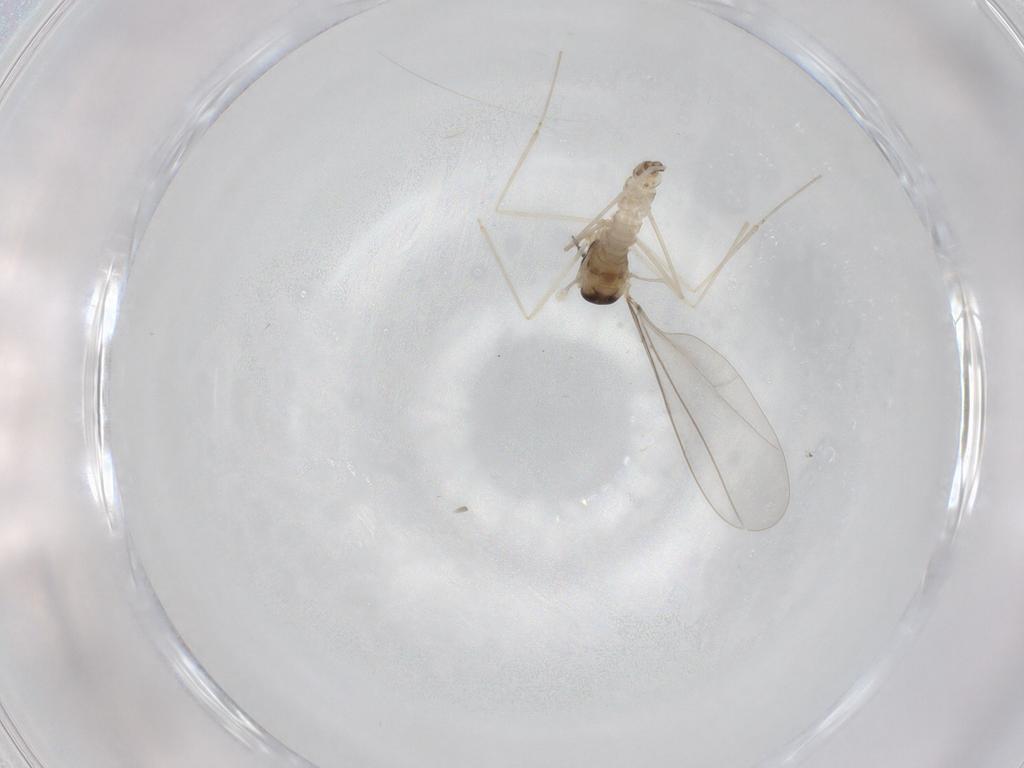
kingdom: Animalia
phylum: Arthropoda
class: Insecta
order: Diptera
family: Cecidomyiidae
